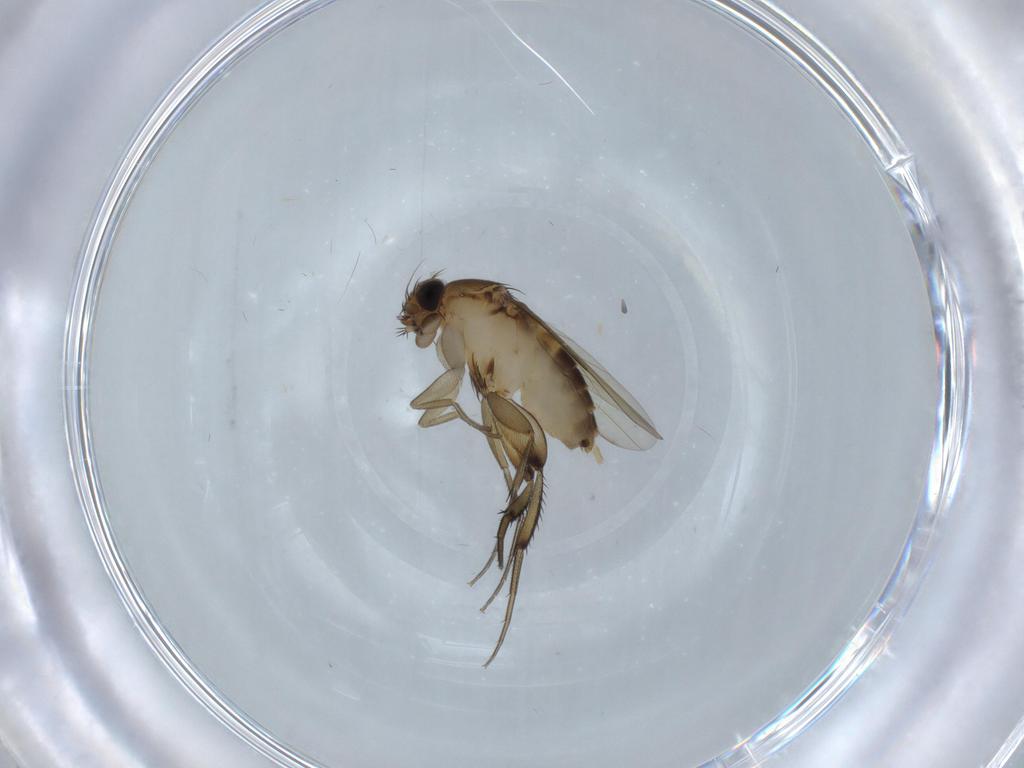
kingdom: Animalia
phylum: Arthropoda
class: Insecta
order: Diptera
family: Phoridae
